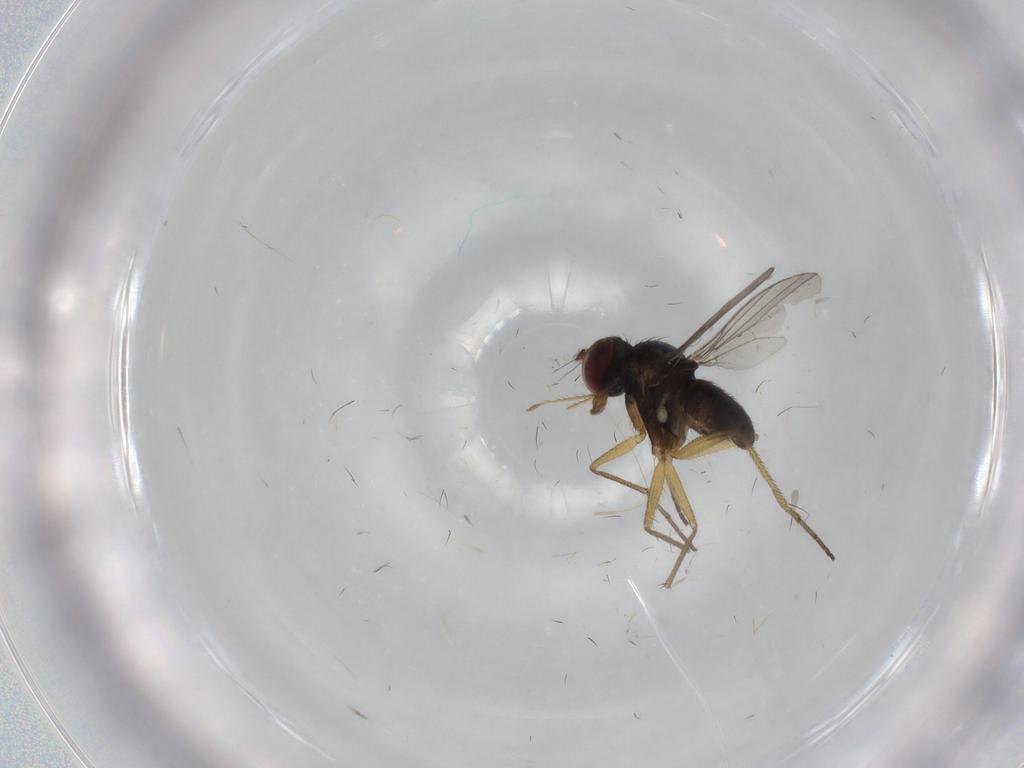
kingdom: Animalia
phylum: Arthropoda
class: Insecta
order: Diptera
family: Dolichopodidae
